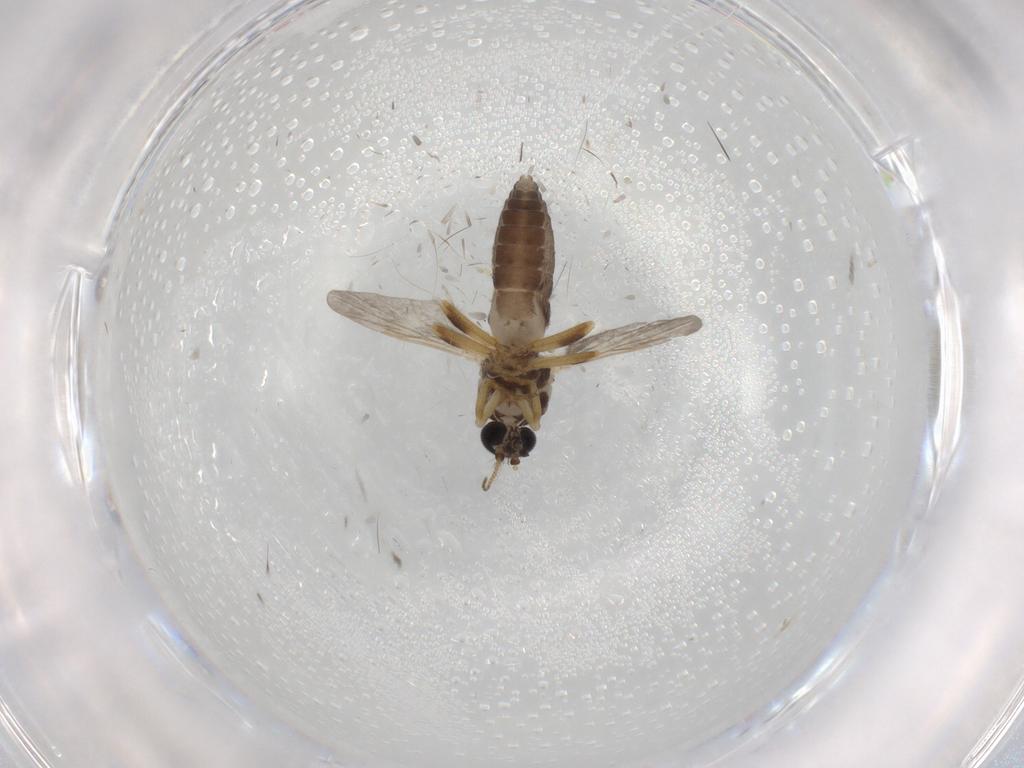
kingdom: Animalia
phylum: Arthropoda
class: Insecta
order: Diptera
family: Ceratopogonidae
